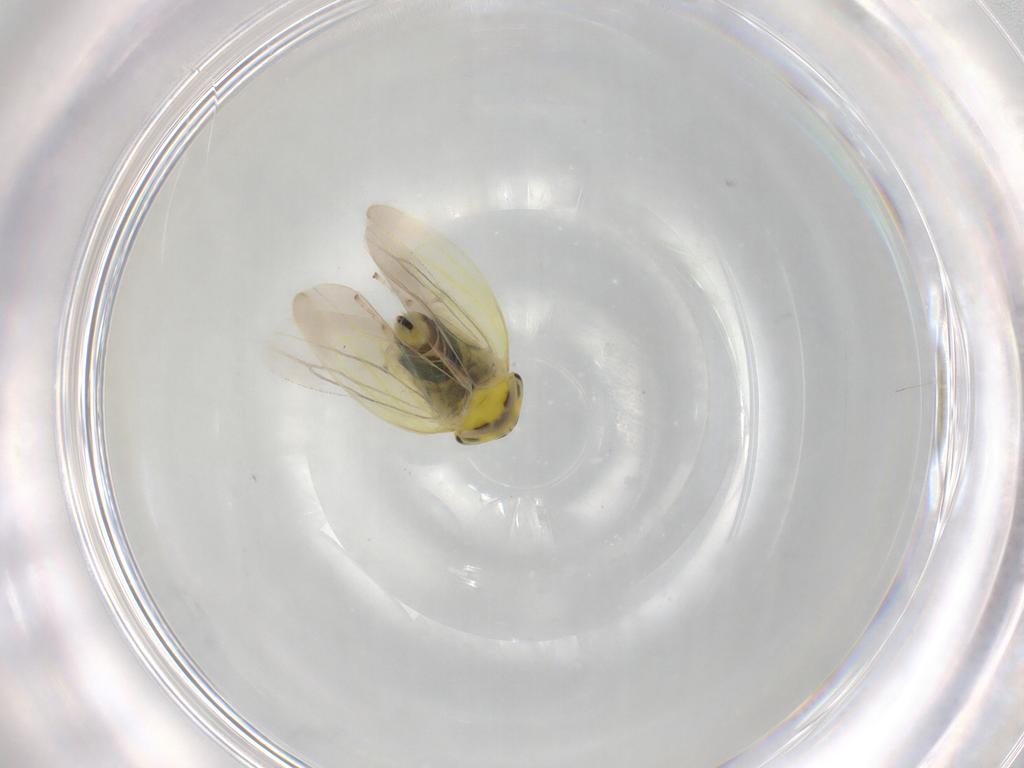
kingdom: Animalia
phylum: Arthropoda
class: Insecta
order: Hemiptera
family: Cicadellidae
